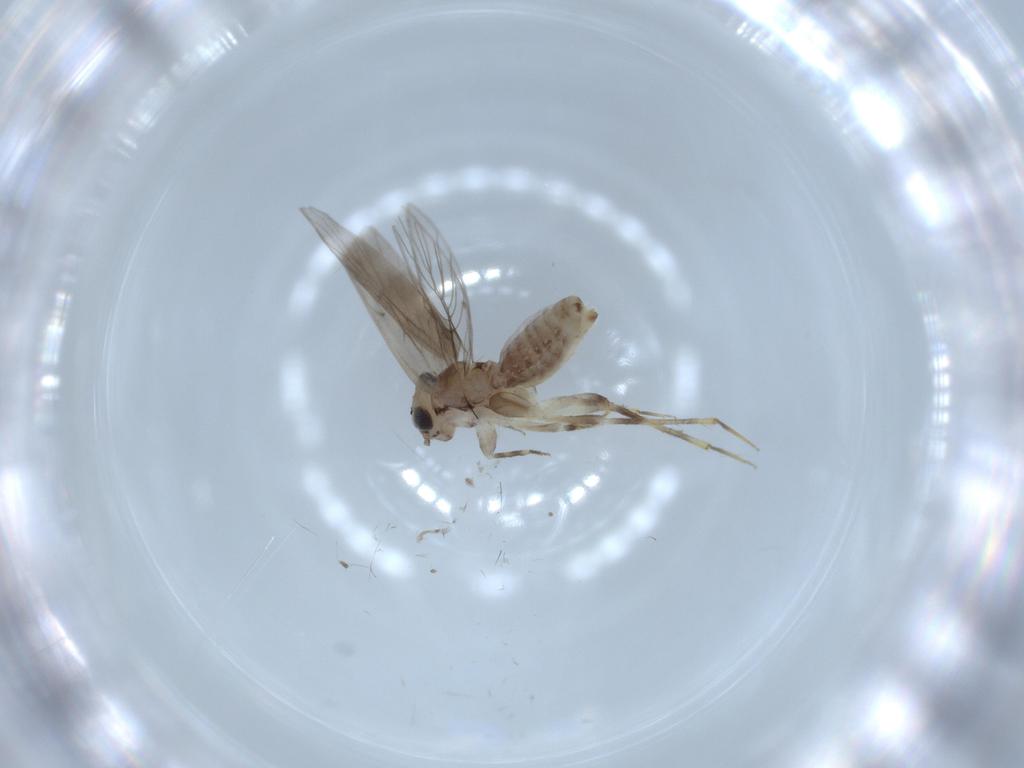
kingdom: Animalia
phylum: Arthropoda
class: Insecta
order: Psocodea
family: Lepidopsocidae
